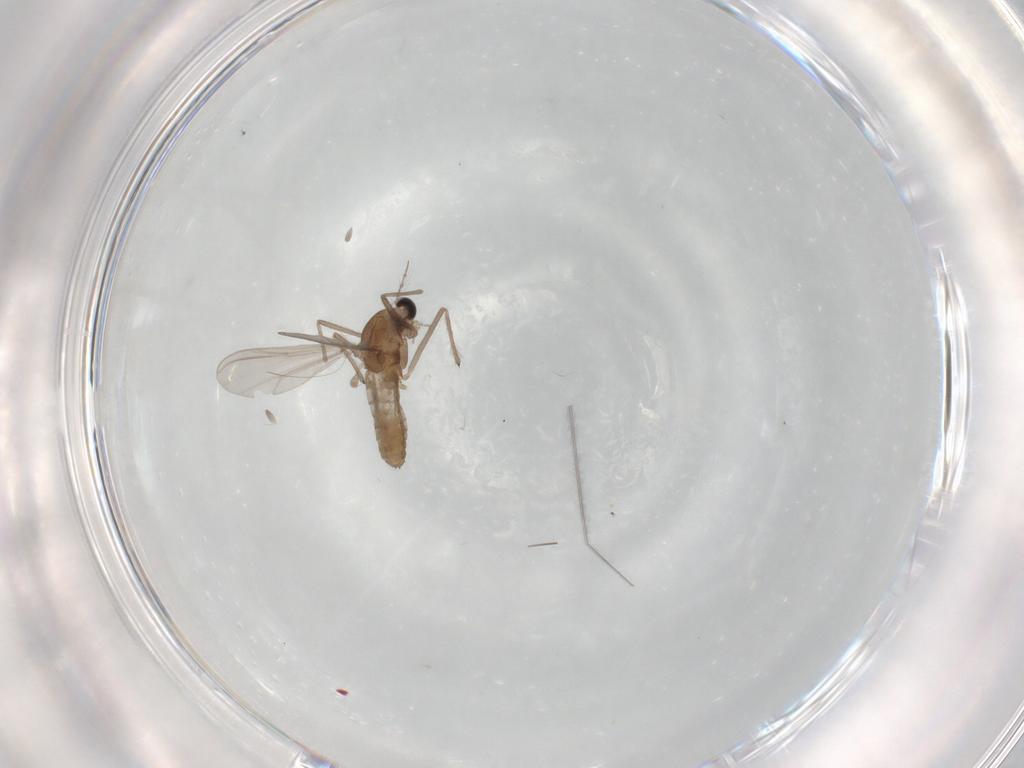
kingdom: Animalia
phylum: Arthropoda
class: Insecta
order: Diptera
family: Chironomidae
